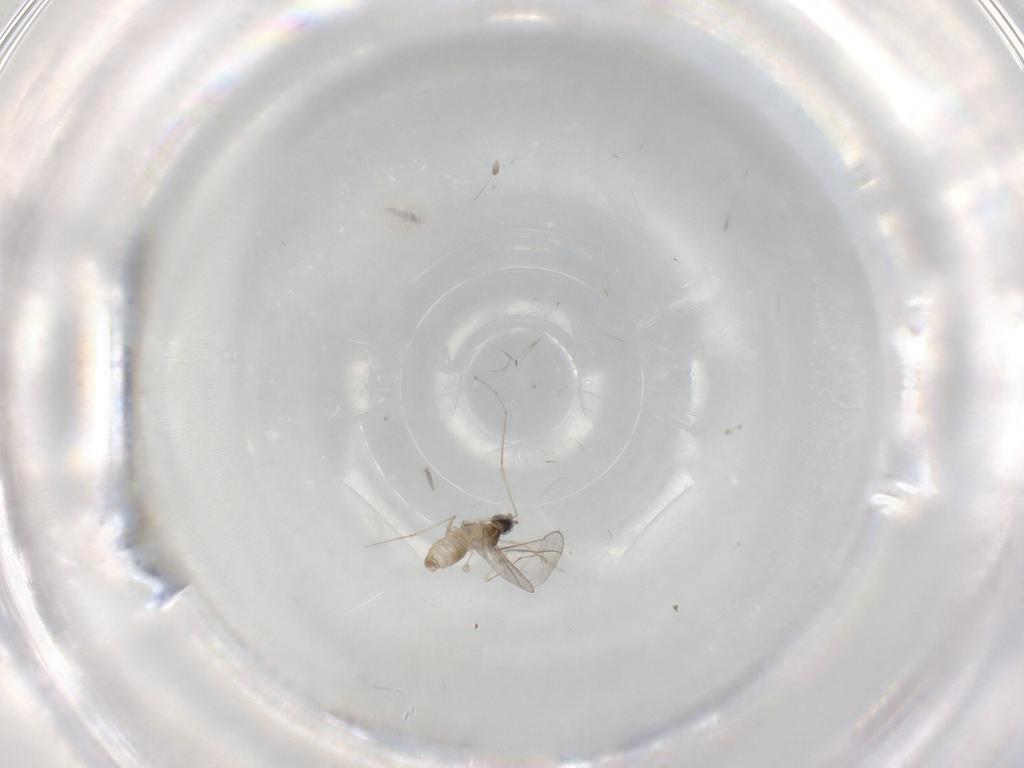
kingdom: Animalia
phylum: Arthropoda
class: Insecta
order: Diptera
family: Cecidomyiidae
